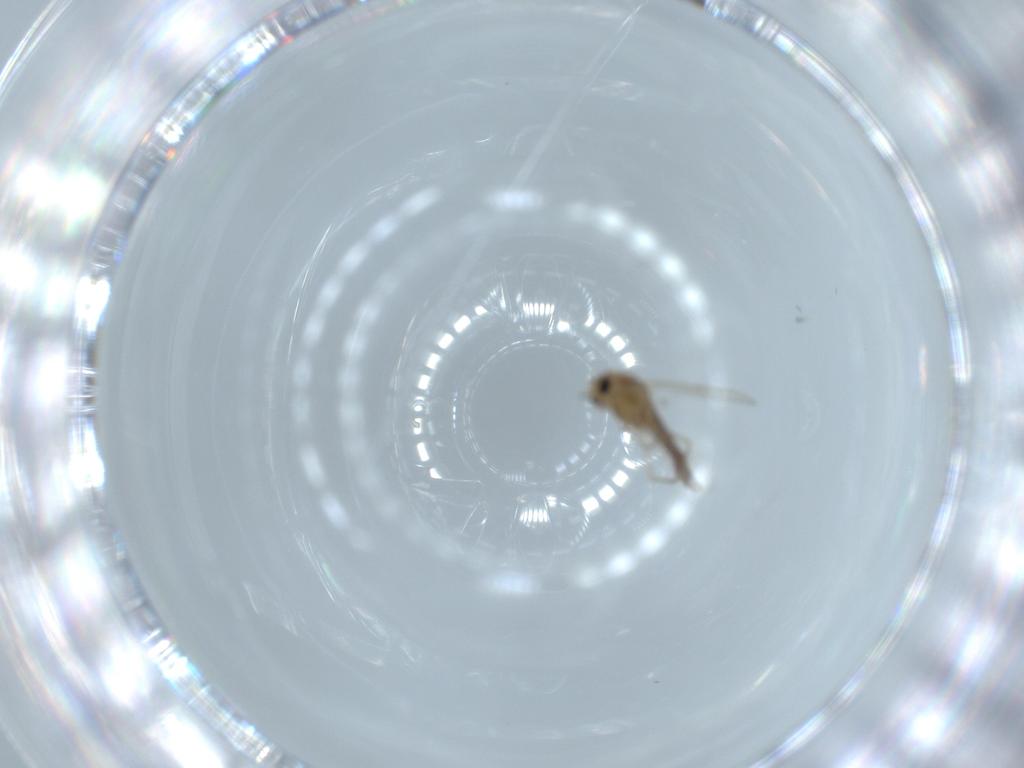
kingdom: Animalia
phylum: Arthropoda
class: Insecta
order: Diptera
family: Chironomidae
